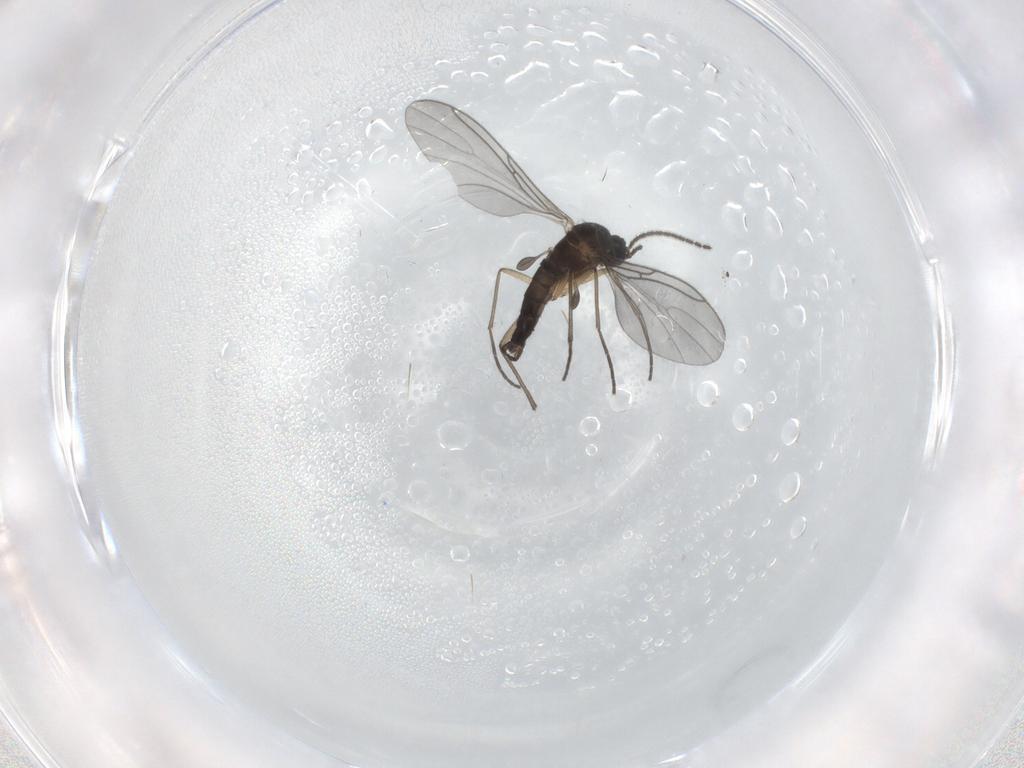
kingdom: Animalia
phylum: Arthropoda
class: Insecta
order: Diptera
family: Sciaridae
